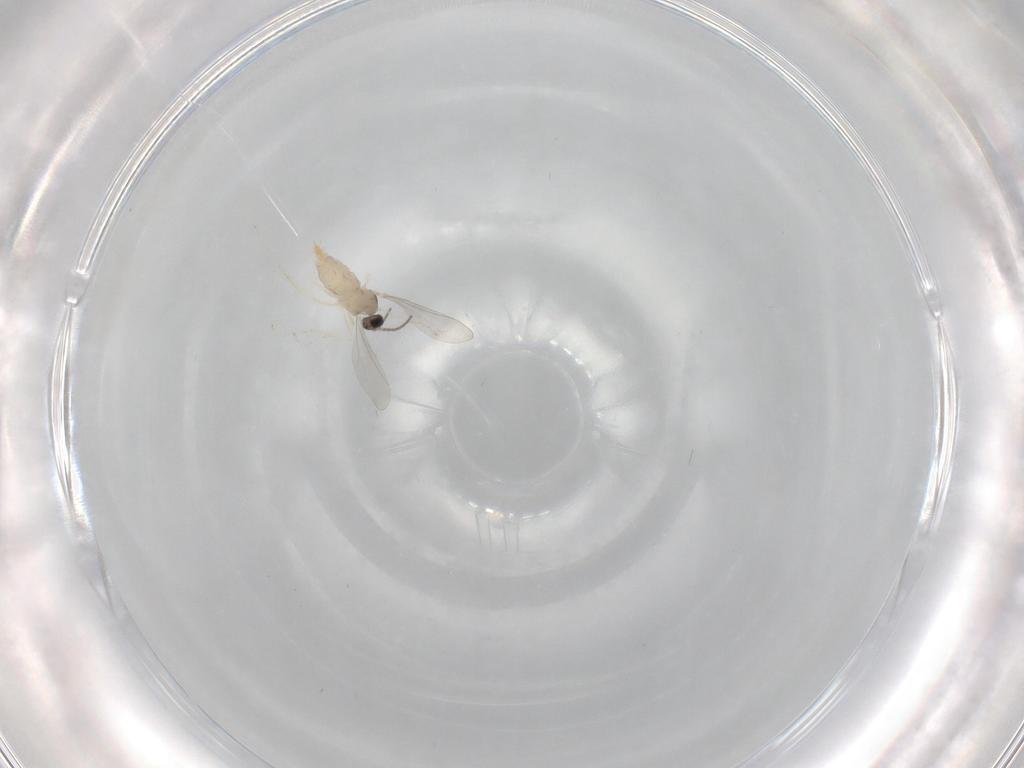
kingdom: Animalia
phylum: Arthropoda
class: Insecta
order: Diptera
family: Cecidomyiidae
